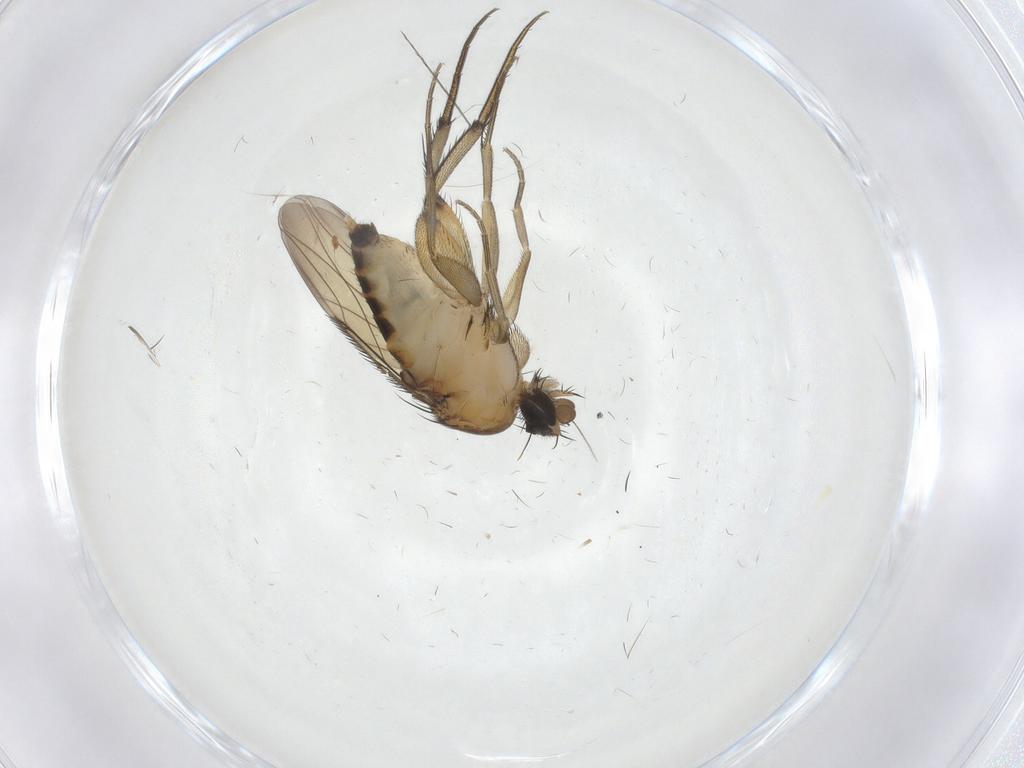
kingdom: Animalia
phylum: Arthropoda
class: Insecta
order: Diptera
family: Phoridae
